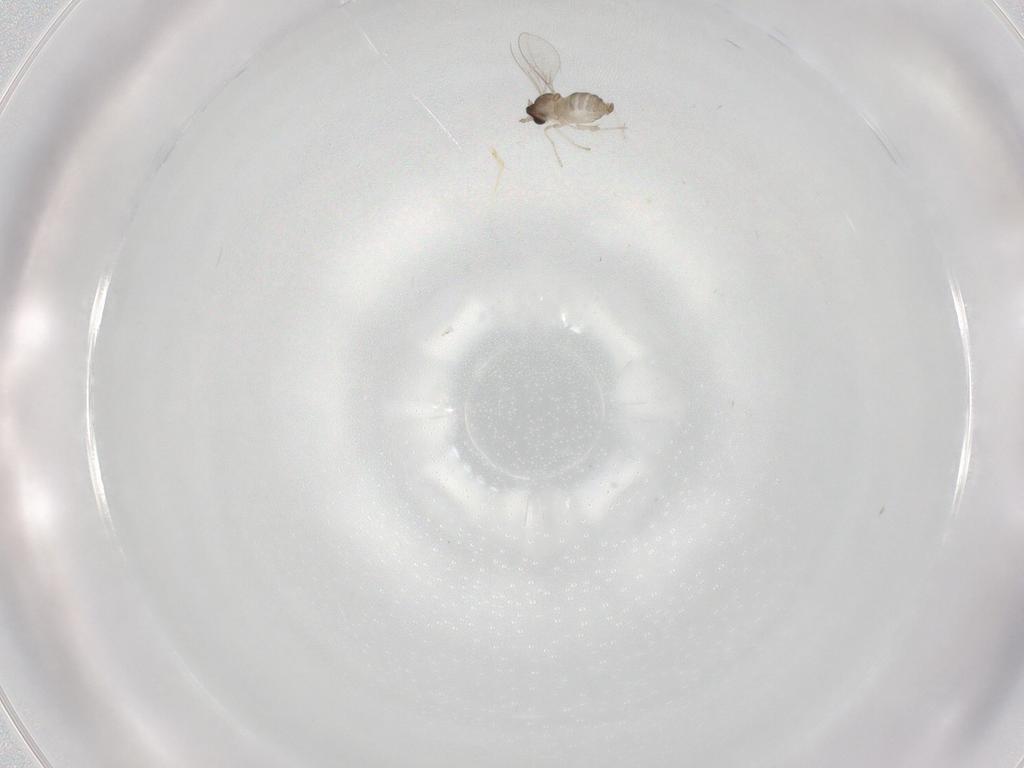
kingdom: Animalia
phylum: Arthropoda
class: Insecta
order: Diptera
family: Cecidomyiidae
